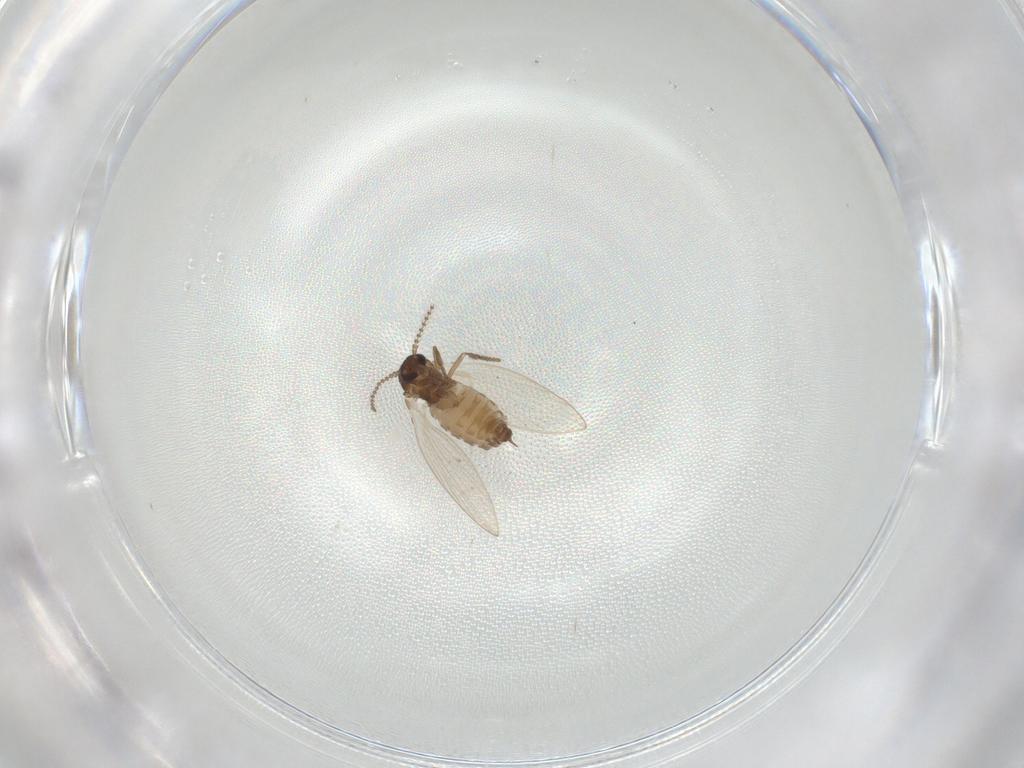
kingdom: Animalia
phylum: Arthropoda
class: Insecta
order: Diptera
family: Psychodidae
